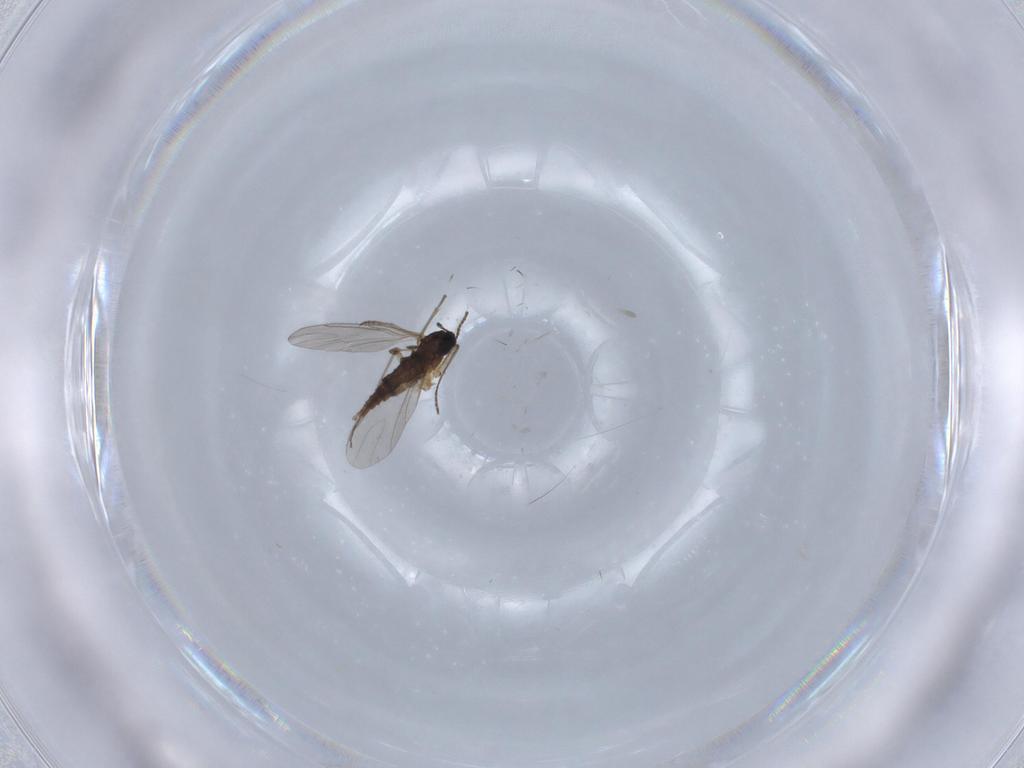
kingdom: Animalia
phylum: Arthropoda
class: Insecta
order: Diptera
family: Sciaridae
